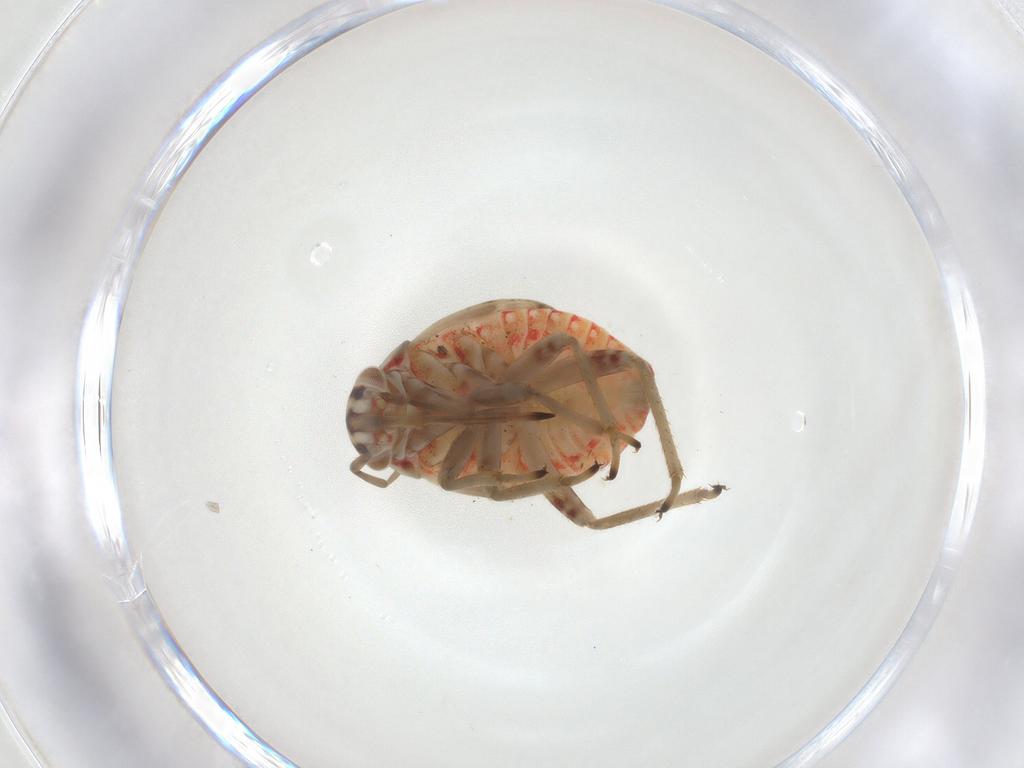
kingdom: Animalia
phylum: Arthropoda
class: Insecta
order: Hemiptera
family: Miridae
